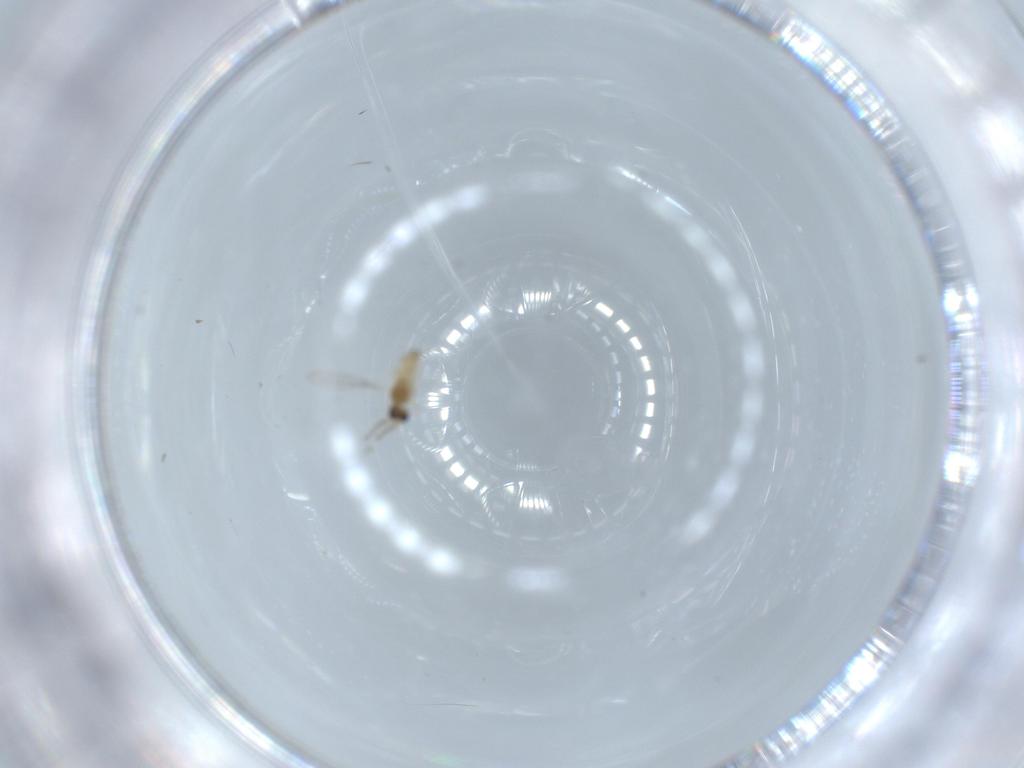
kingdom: Animalia
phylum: Arthropoda
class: Insecta
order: Diptera
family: Cecidomyiidae
